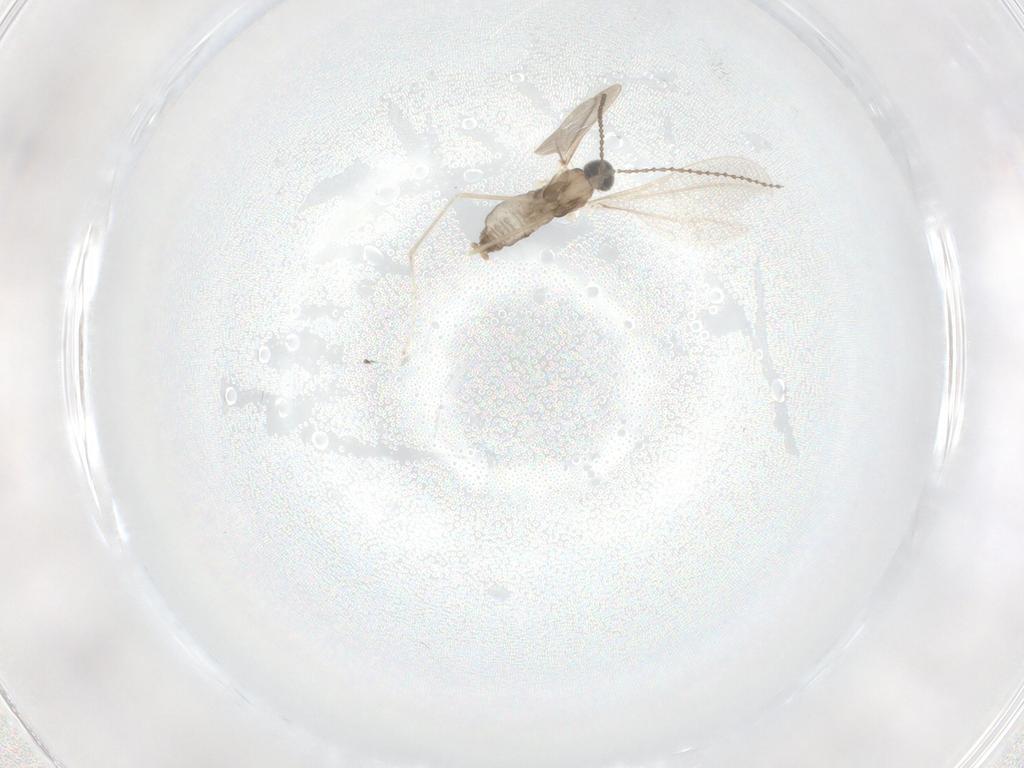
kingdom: Animalia
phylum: Arthropoda
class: Insecta
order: Diptera
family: Cecidomyiidae
